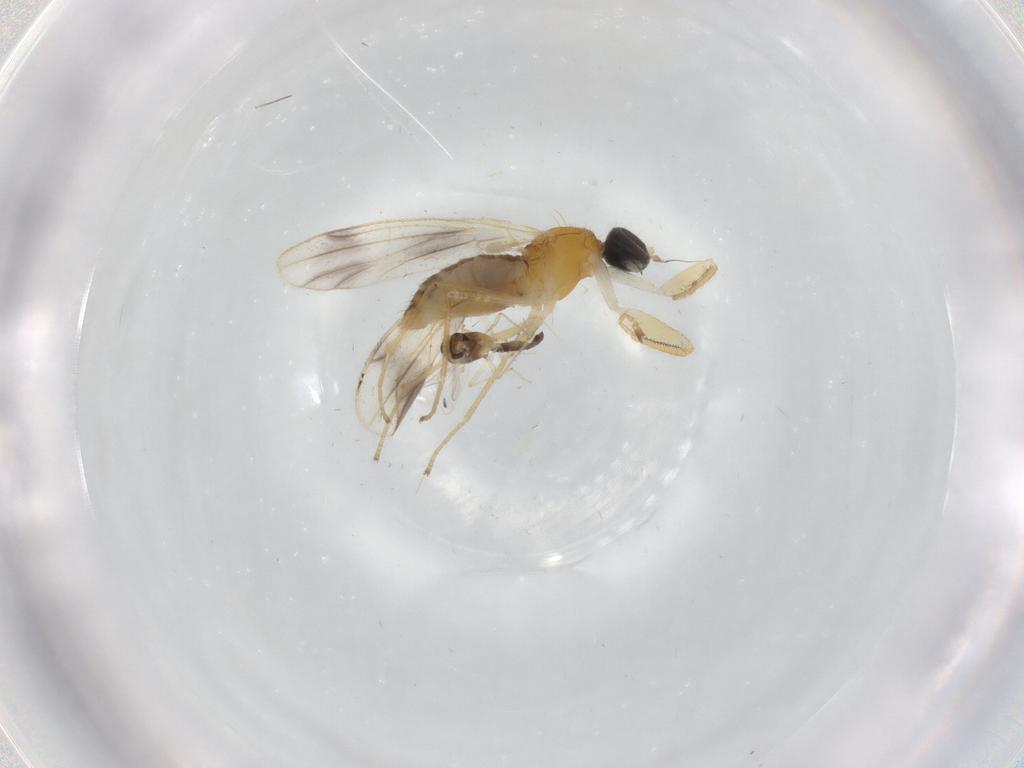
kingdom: Animalia
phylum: Arthropoda
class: Insecta
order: Diptera
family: Chironomidae
